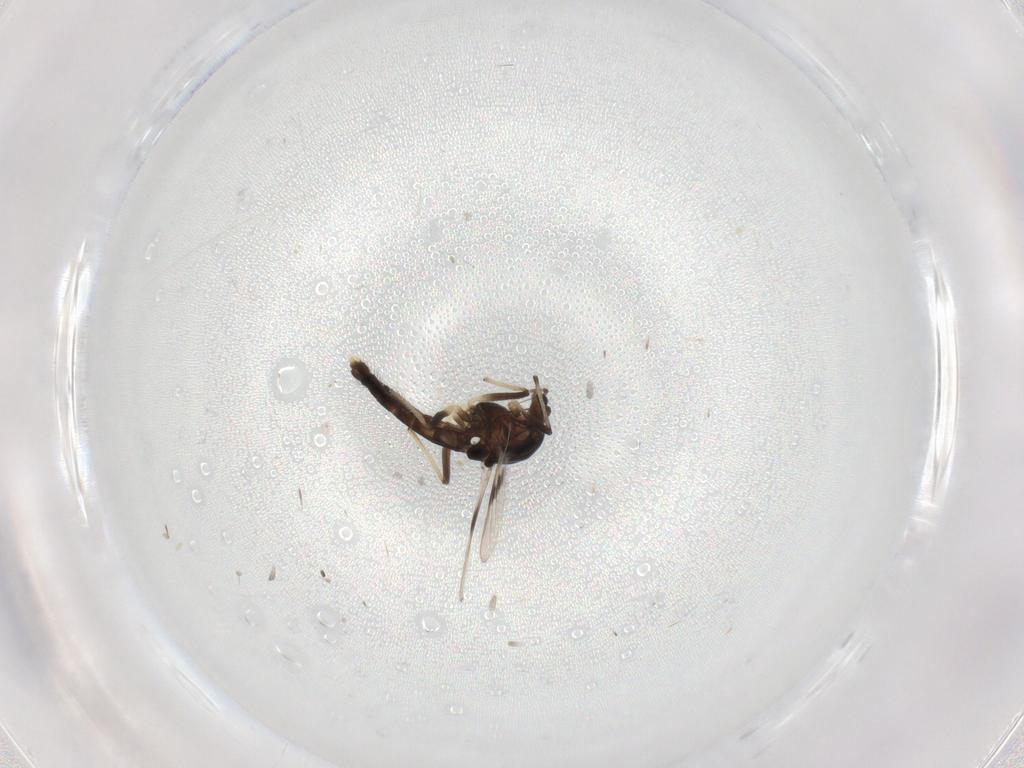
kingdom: Animalia
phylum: Arthropoda
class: Insecta
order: Diptera
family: Chironomidae
